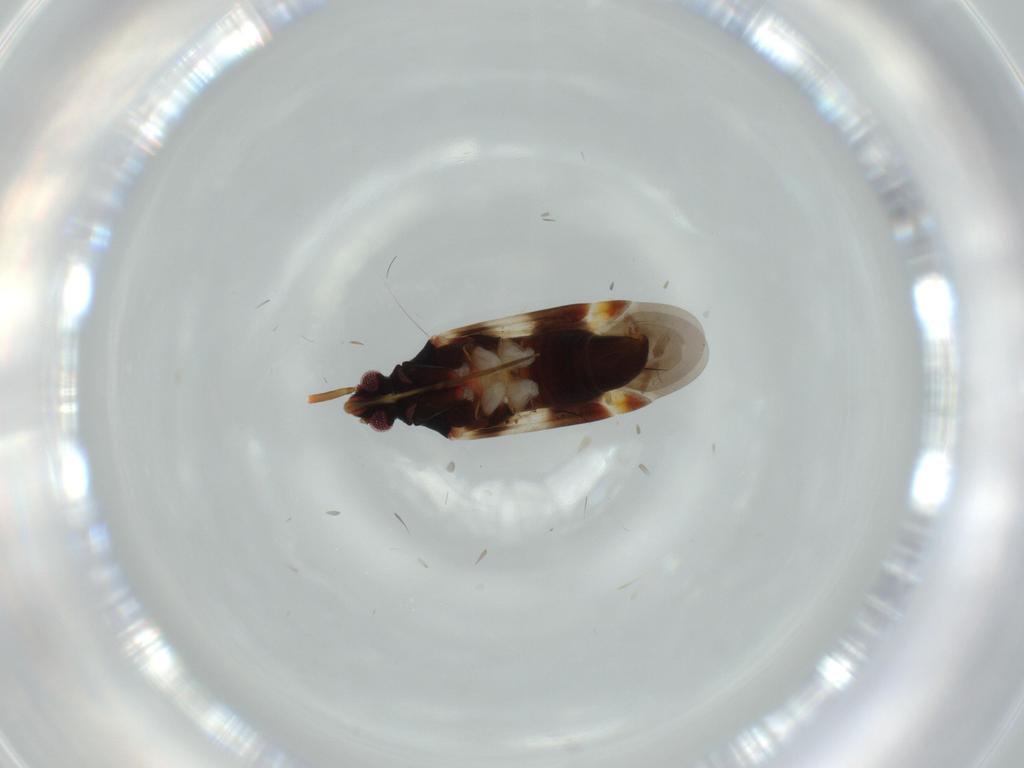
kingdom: Animalia
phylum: Arthropoda
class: Insecta
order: Hemiptera
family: Miridae
